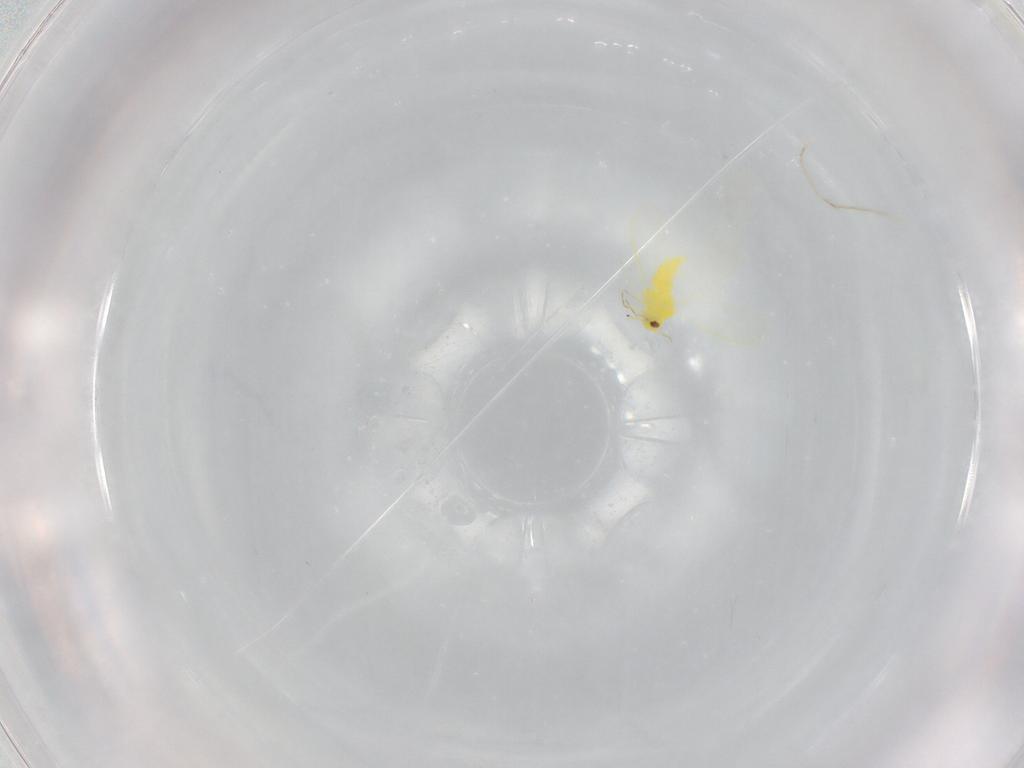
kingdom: Animalia
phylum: Arthropoda
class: Insecta
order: Hemiptera
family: Aleyrodidae
